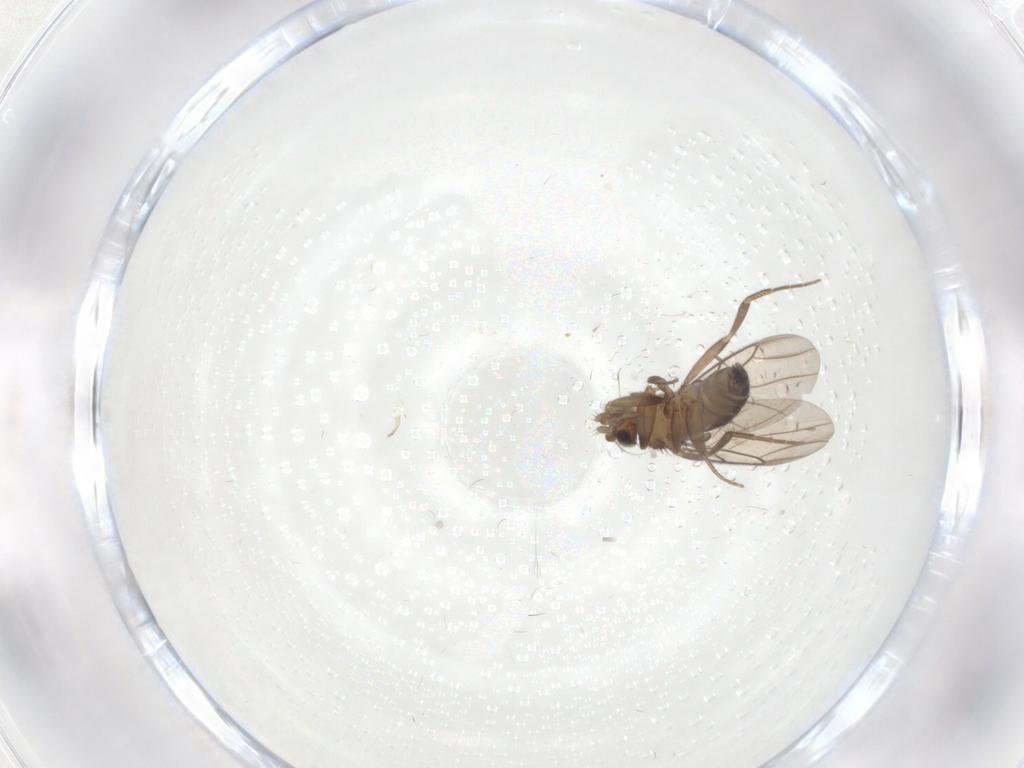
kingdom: Animalia
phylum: Arthropoda
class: Insecta
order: Diptera
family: Phoridae
